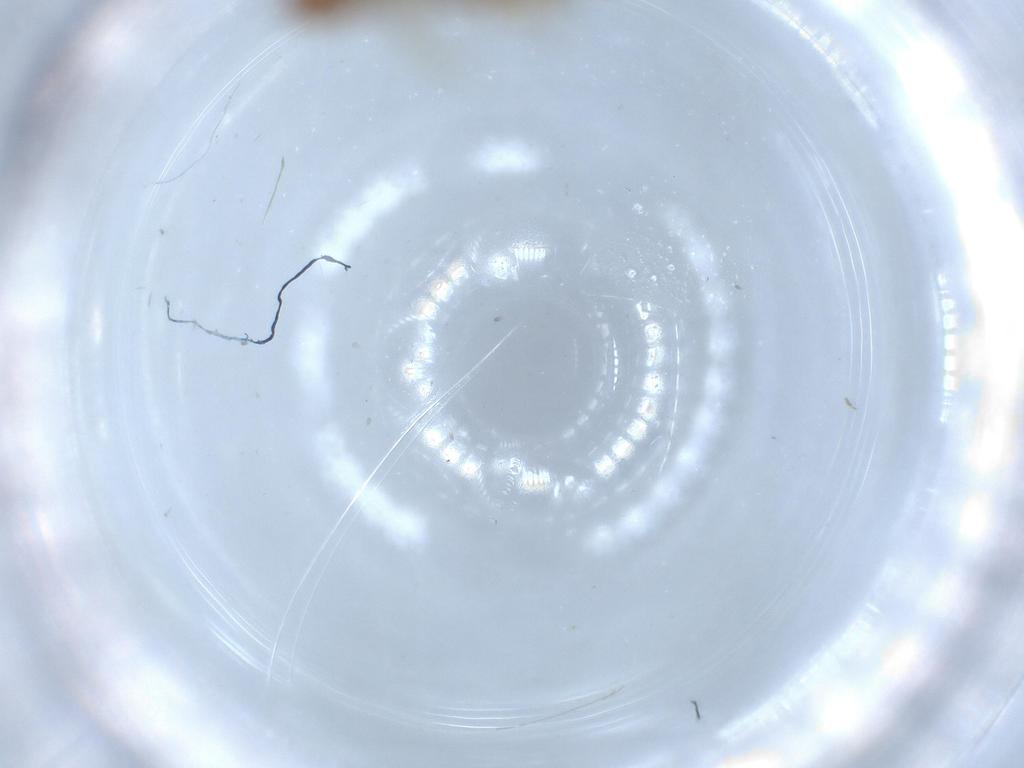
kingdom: Animalia
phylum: Arthropoda
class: Insecta
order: Coleoptera
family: Staphylinidae
